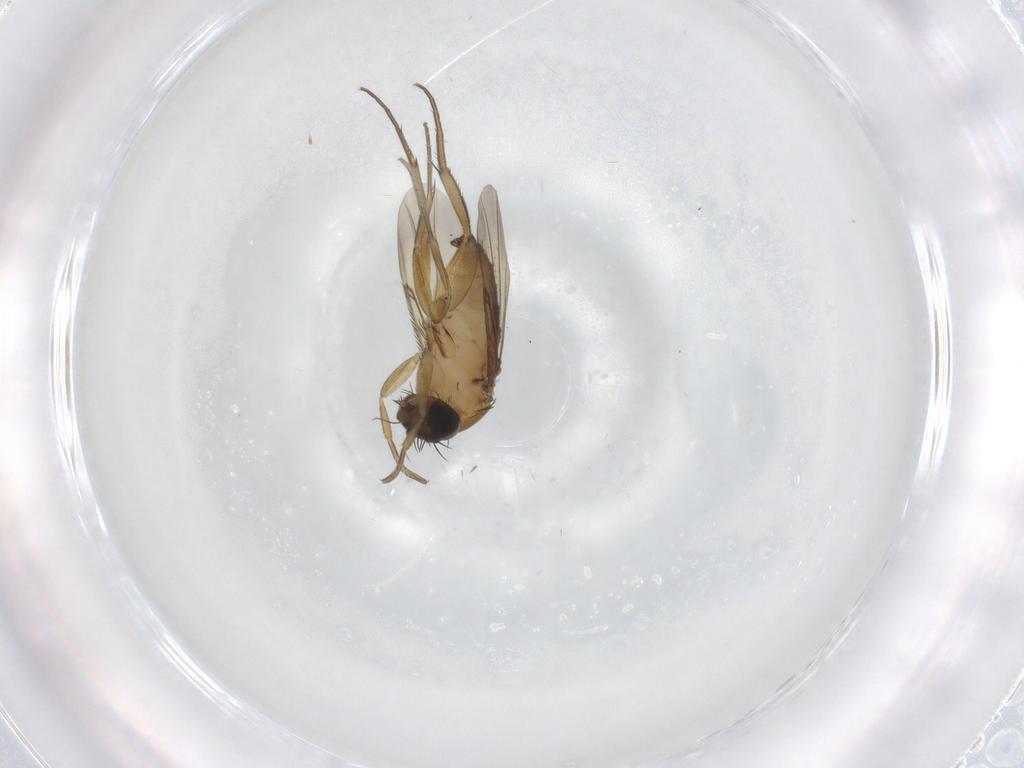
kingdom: Animalia
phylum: Arthropoda
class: Insecta
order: Diptera
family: Phoridae
